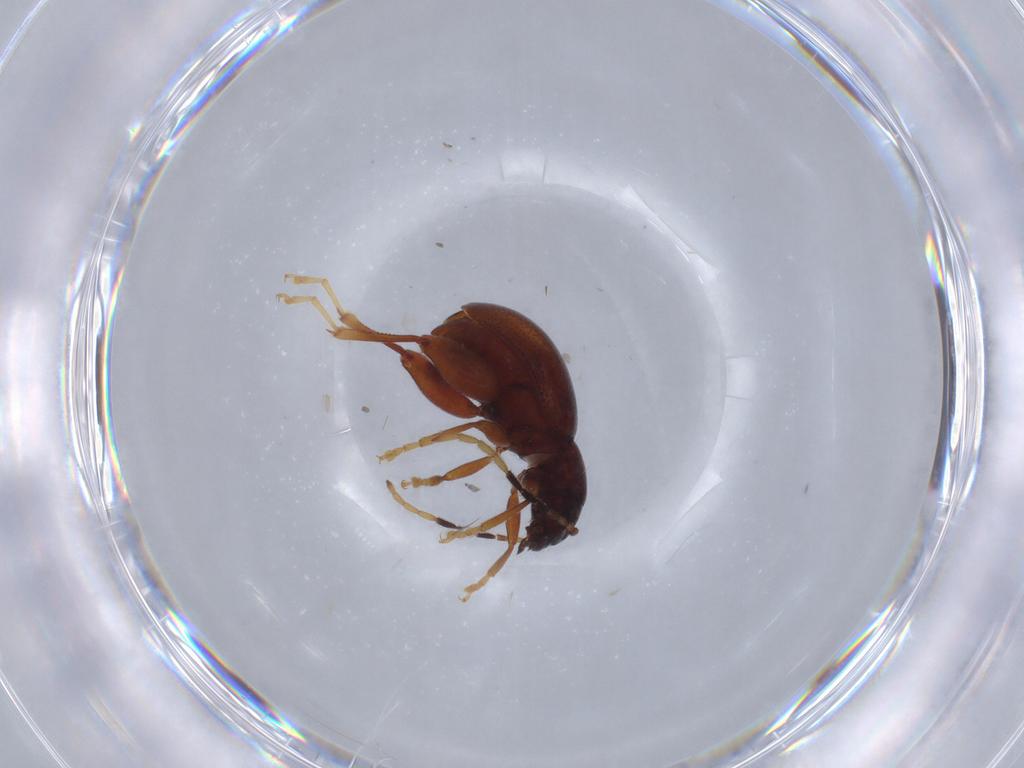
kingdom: Animalia
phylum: Arthropoda
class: Insecta
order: Coleoptera
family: Chrysomelidae
